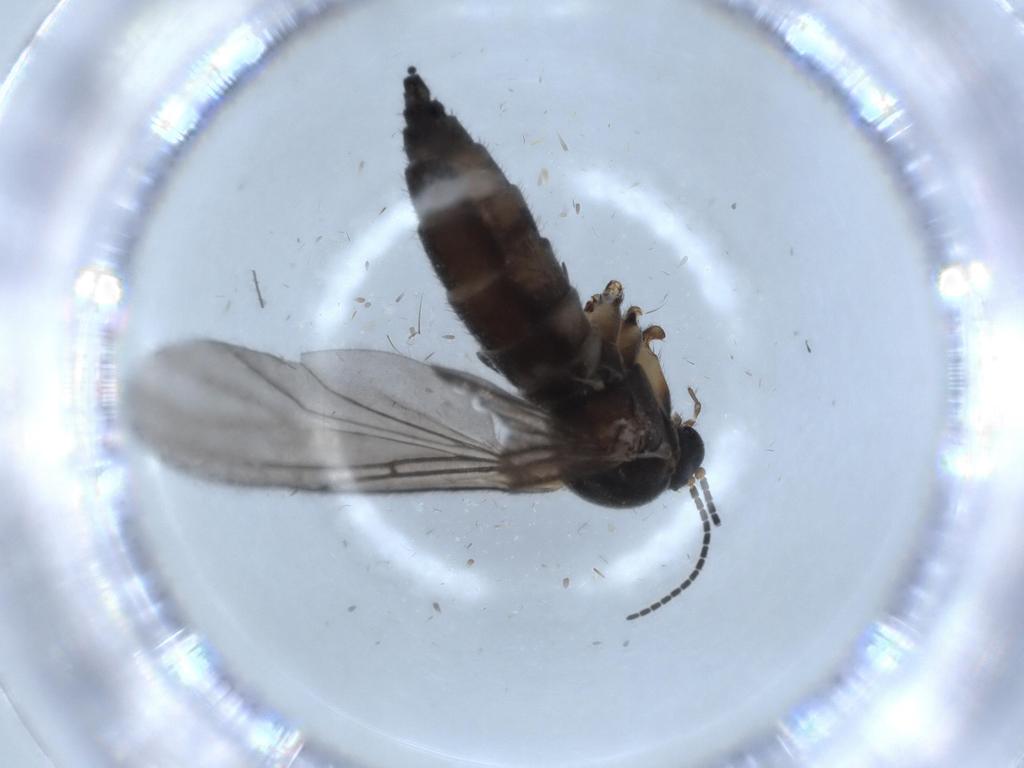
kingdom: Animalia
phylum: Arthropoda
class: Insecta
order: Diptera
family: Sciaridae
